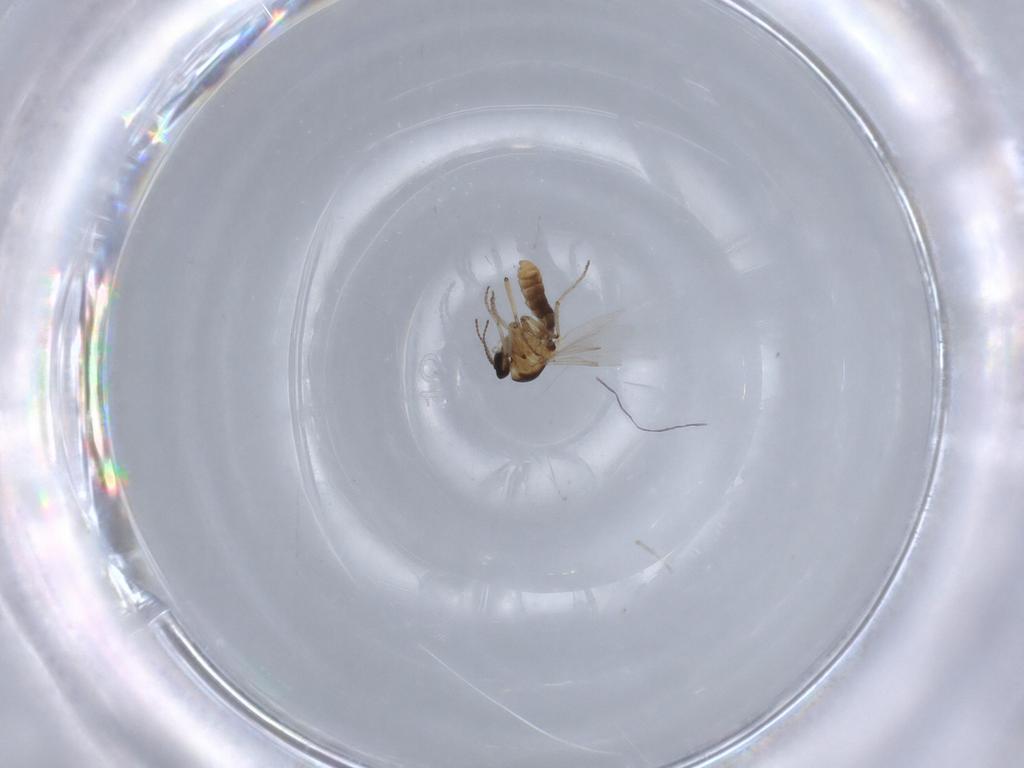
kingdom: Animalia
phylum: Arthropoda
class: Insecta
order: Diptera
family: Ceratopogonidae
